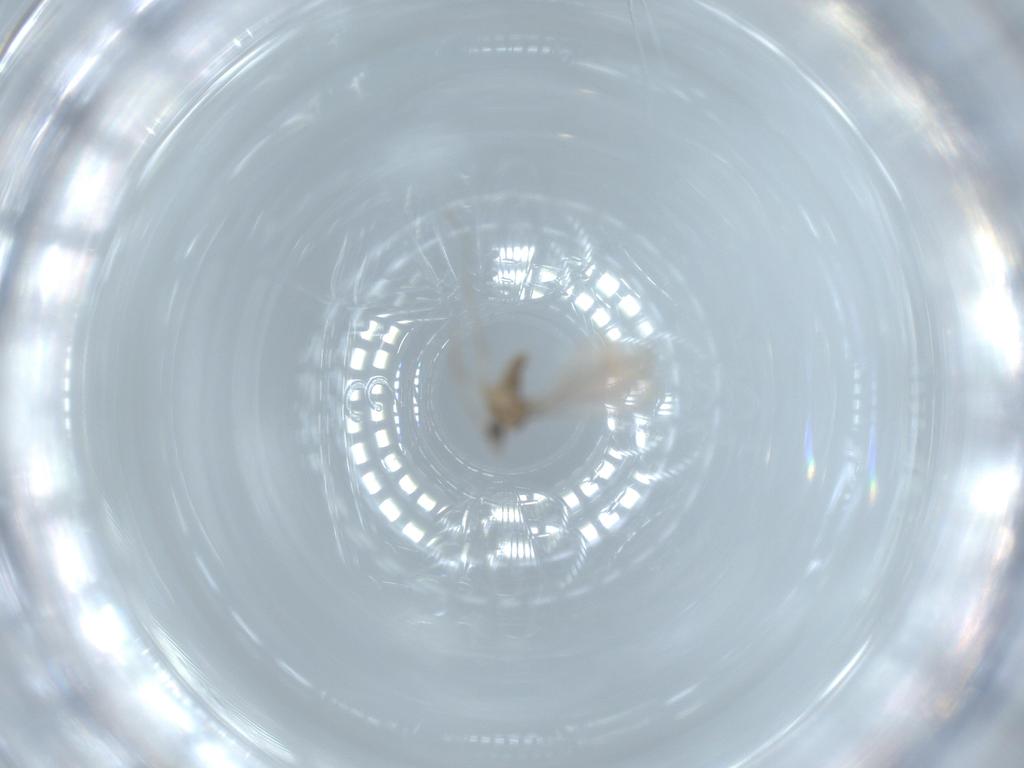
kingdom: Animalia
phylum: Arthropoda
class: Insecta
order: Diptera
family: Cecidomyiidae
